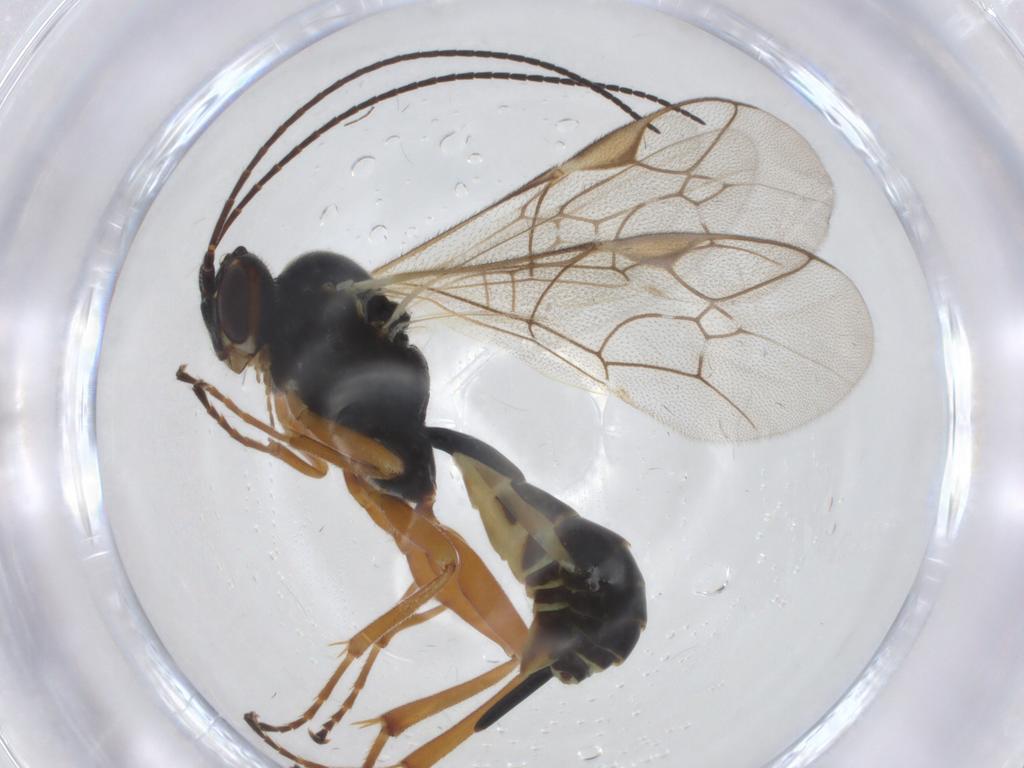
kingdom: Animalia
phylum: Arthropoda
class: Insecta
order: Hymenoptera
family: Ichneumonidae
